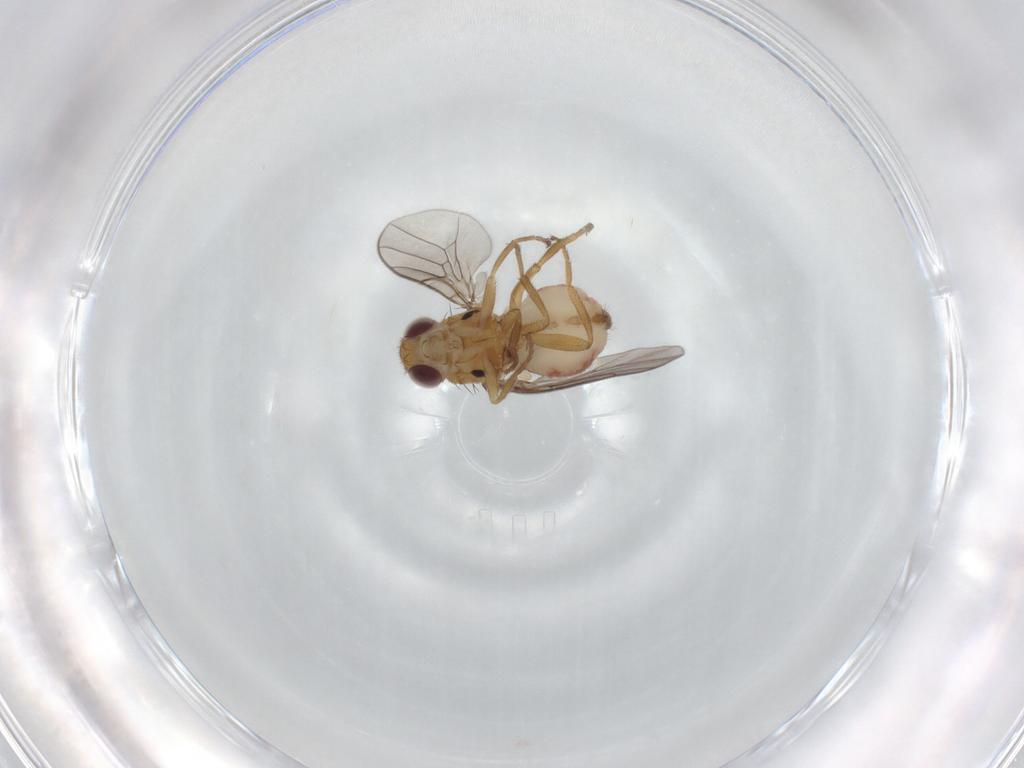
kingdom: Animalia
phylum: Arthropoda
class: Insecta
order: Diptera
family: Chloropidae
